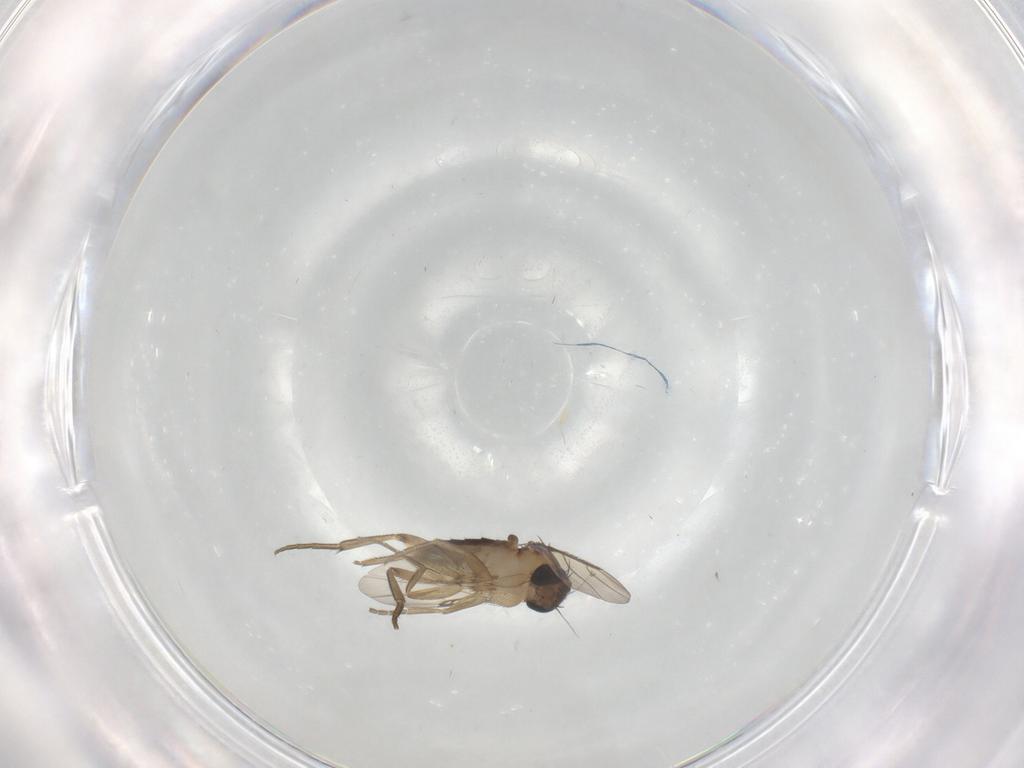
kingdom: Animalia
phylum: Arthropoda
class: Insecta
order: Diptera
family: Phoridae
